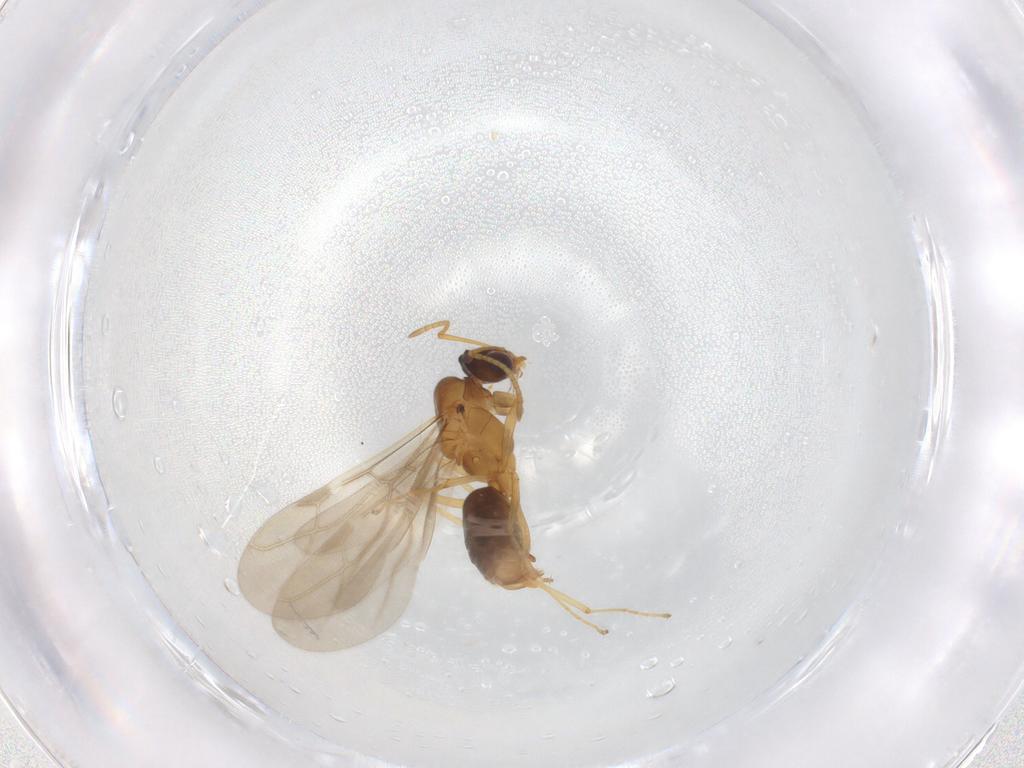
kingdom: Animalia
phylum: Arthropoda
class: Insecta
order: Hymenoptera
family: Formicidae
